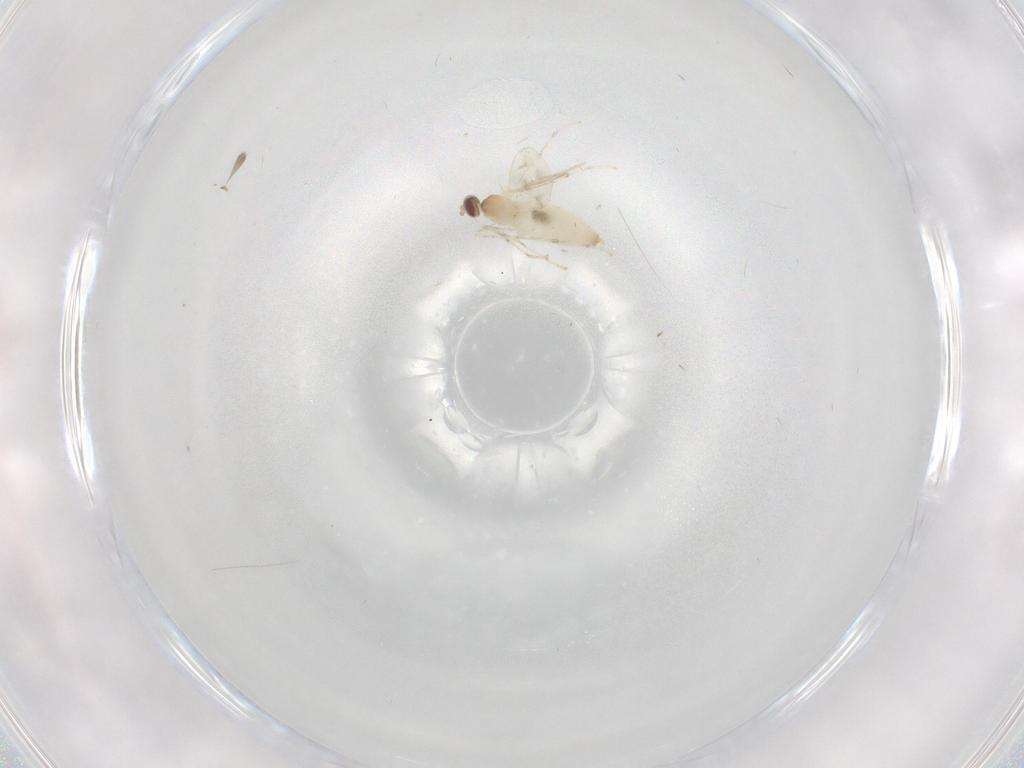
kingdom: Animalia
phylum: Arthropoda
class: Insecta
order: Diptera
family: Cecidomyiidae
